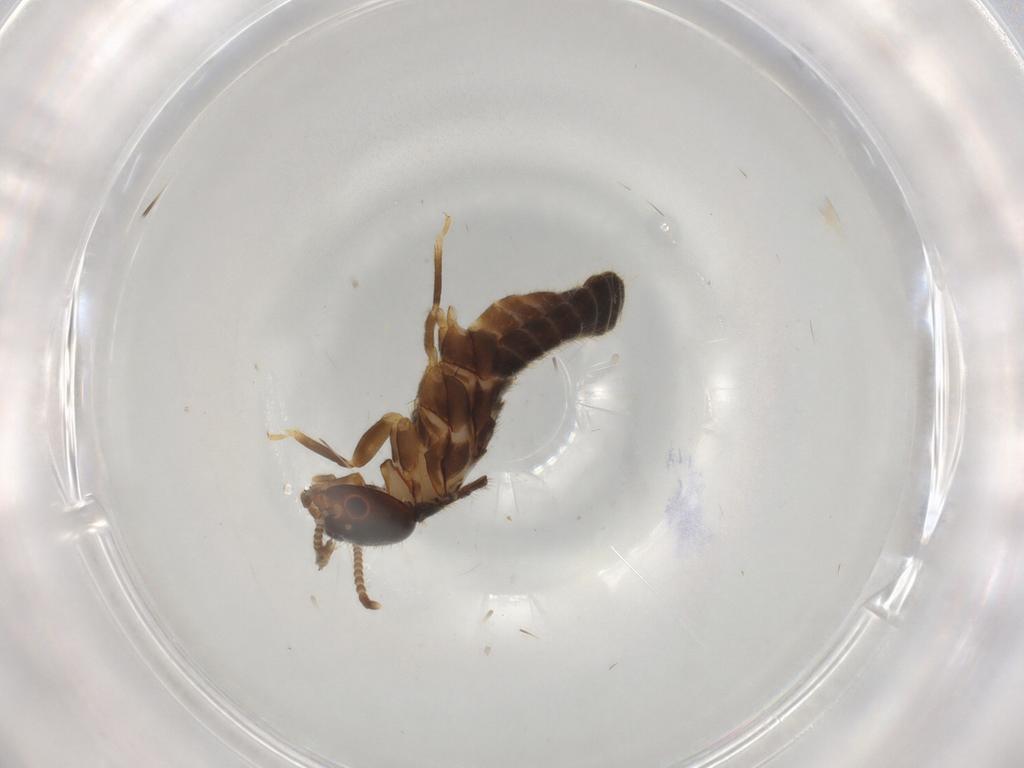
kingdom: Animalia
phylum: Arthropoda
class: Insecta
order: Blattodea
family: Termitidae
